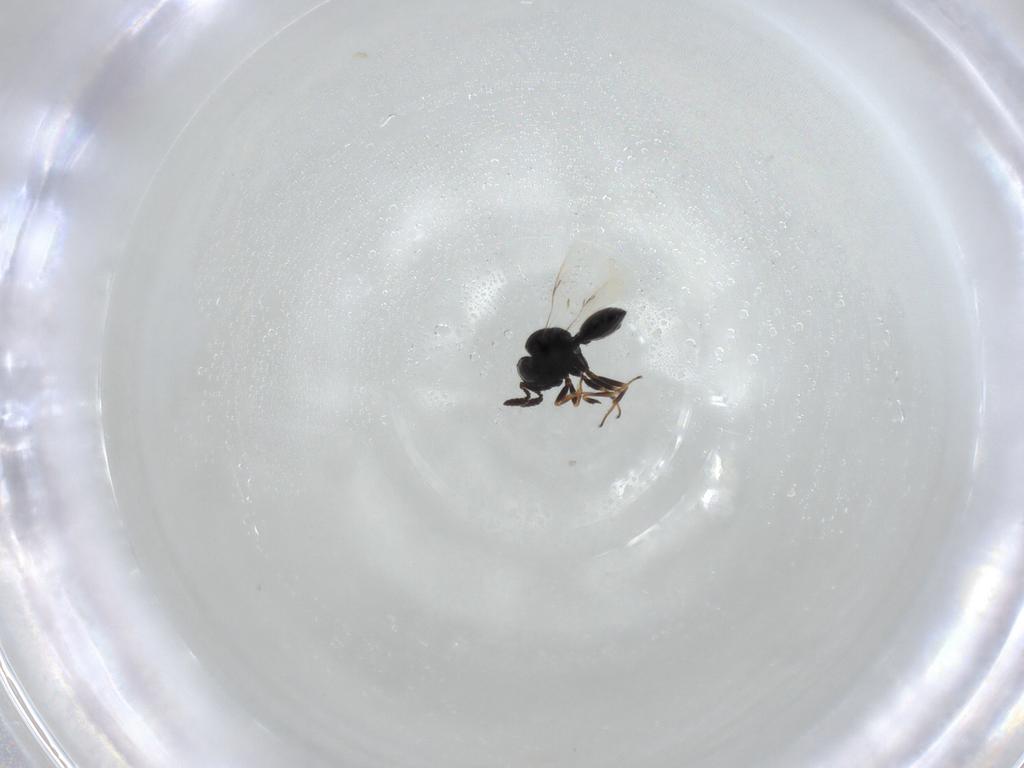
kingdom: Animalia
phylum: Arthropoda
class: Insecta
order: Hymenoptera
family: Scelionidae
